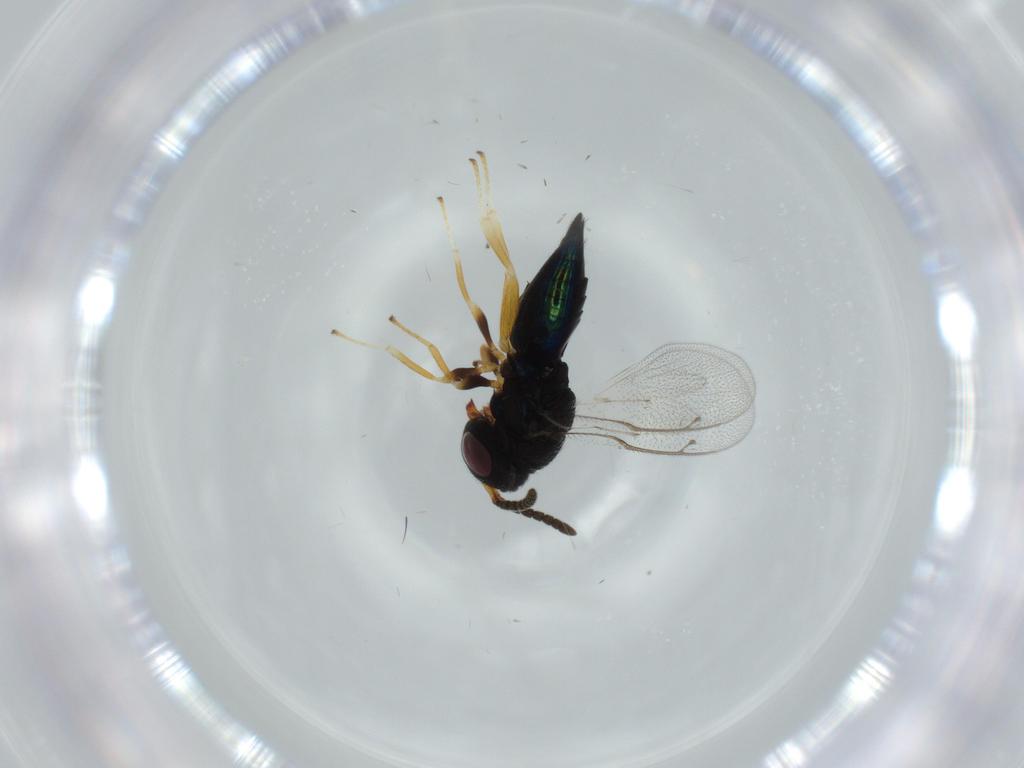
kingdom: Animalia
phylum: Arthropoda
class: Insecta
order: Hymenoptera
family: Pteromalidae
